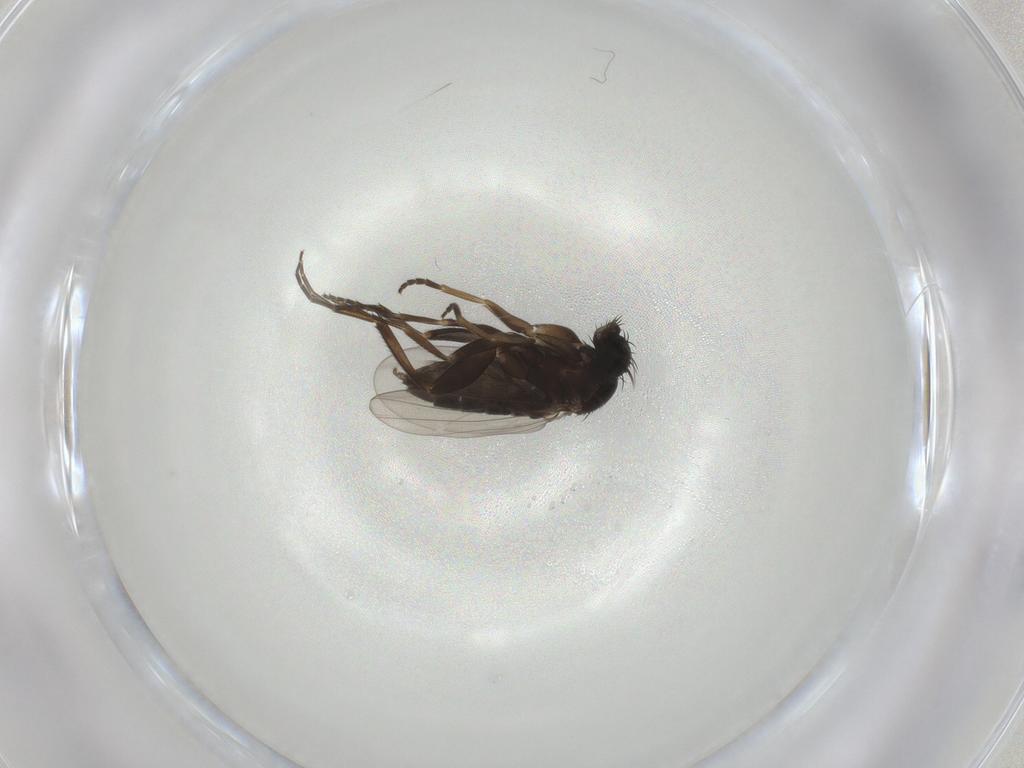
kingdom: Animalia
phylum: Arthropoda
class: Insecta
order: Diptera
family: Phoridae
